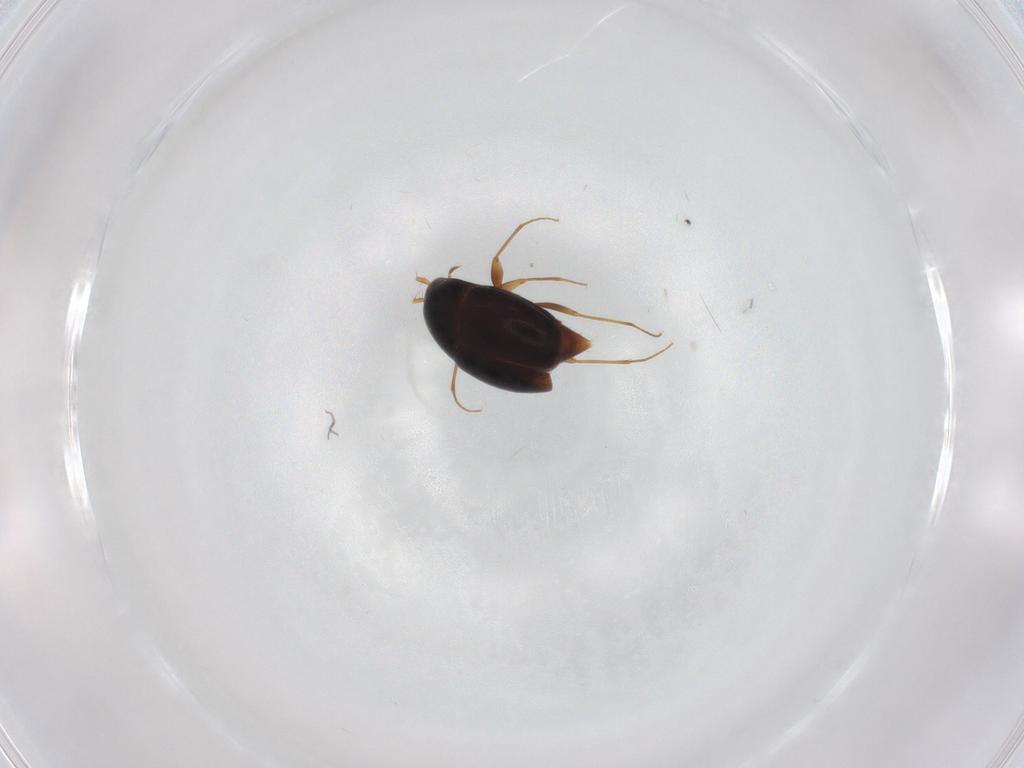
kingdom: Animalia
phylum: Arthropoda
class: Insecta
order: Coleoptera
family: Staphylinidae
